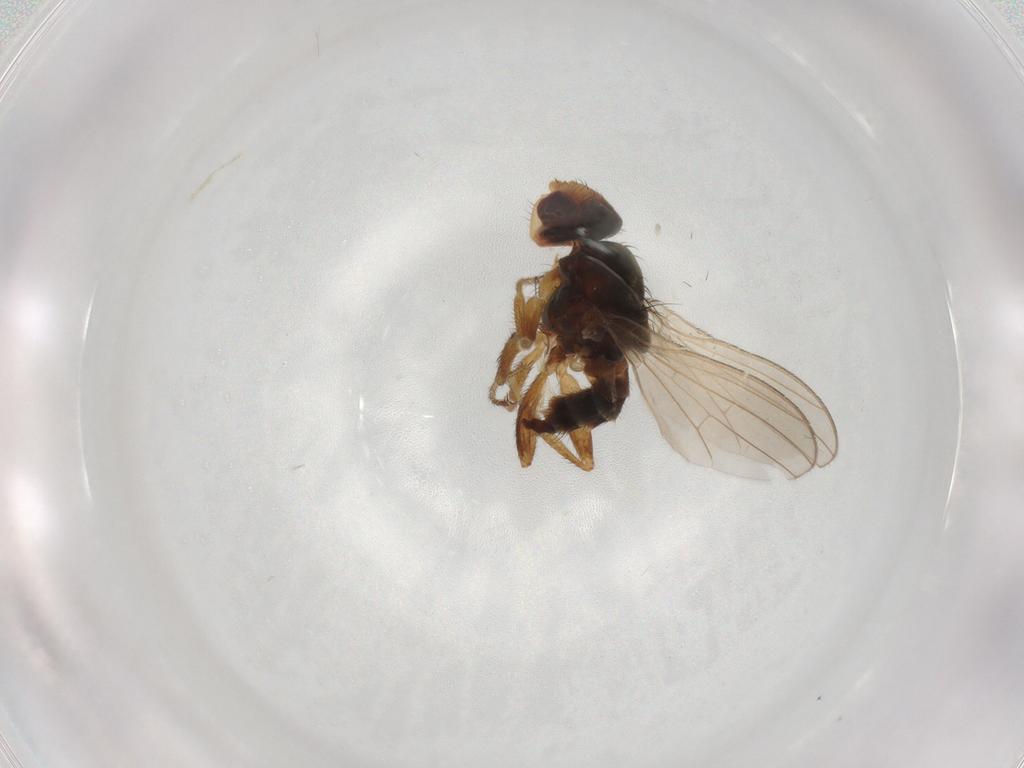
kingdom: Animalia
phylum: Arthropoda
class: Insecta
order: Diptera
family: Canacidae
